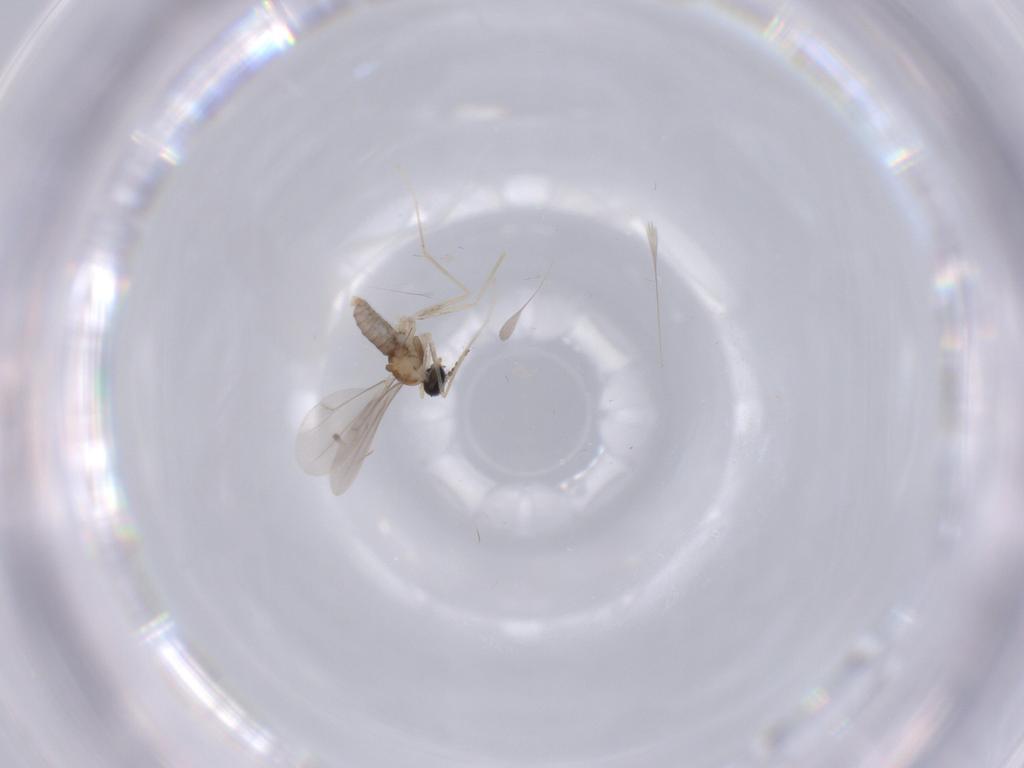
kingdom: Animalia
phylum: Arthropoda
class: Insecta
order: Diptera
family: Cecidomyiidae
